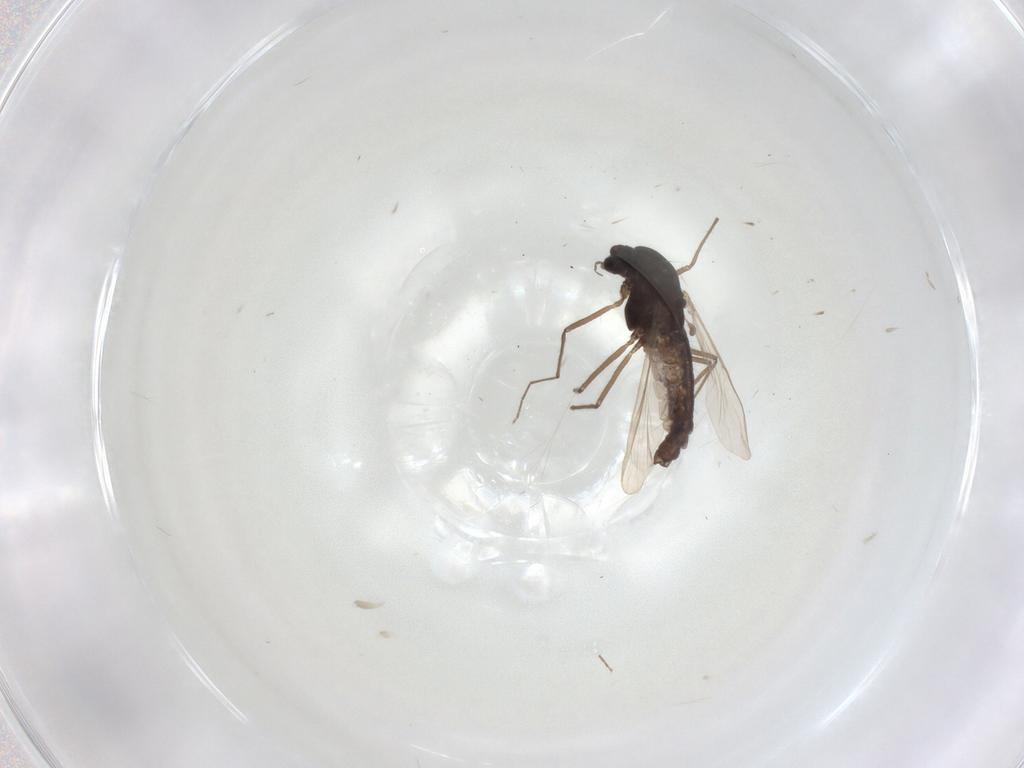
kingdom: Animalia
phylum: Arthropoda
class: Insecta
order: Diptera
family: Chironomidae
